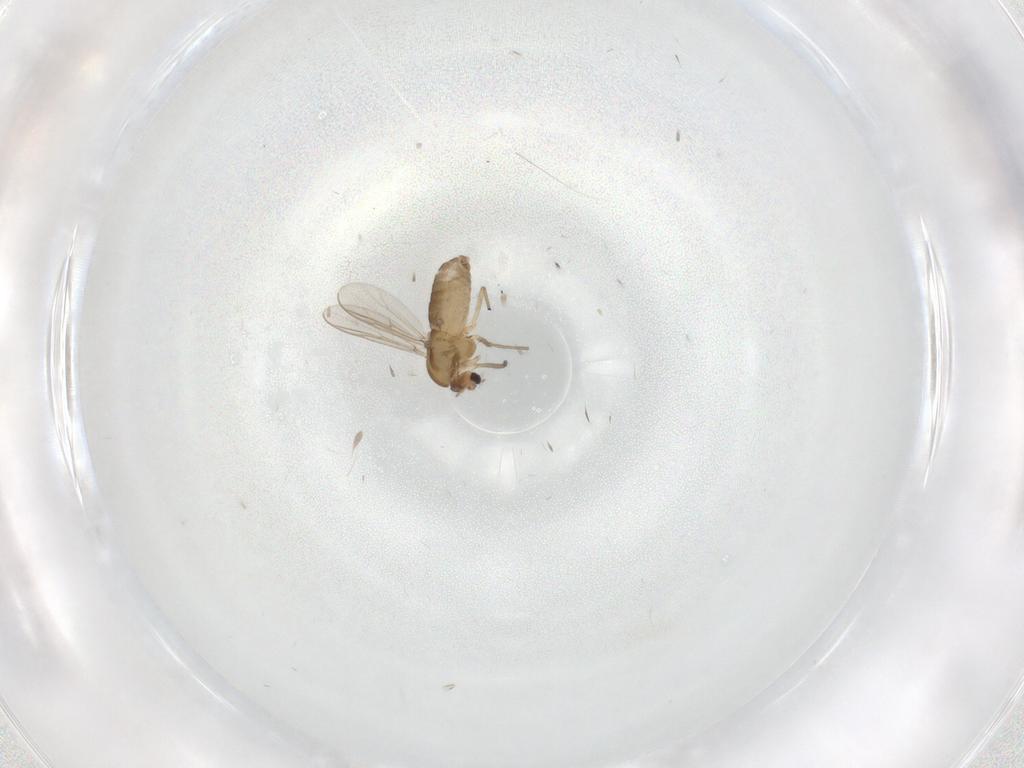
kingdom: Animalia
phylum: Arthropoda
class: Insecta
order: Diptera
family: Chironomidae
